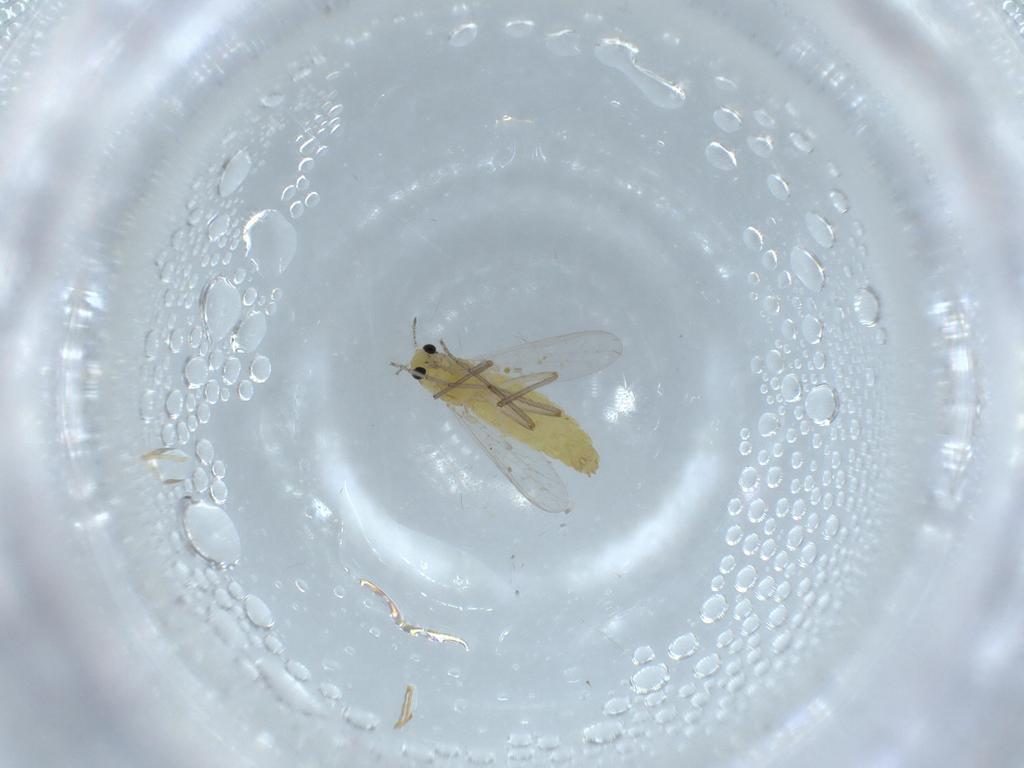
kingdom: Animalia
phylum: Arthropoda
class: Insecta
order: Diptera
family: Chironomidae
